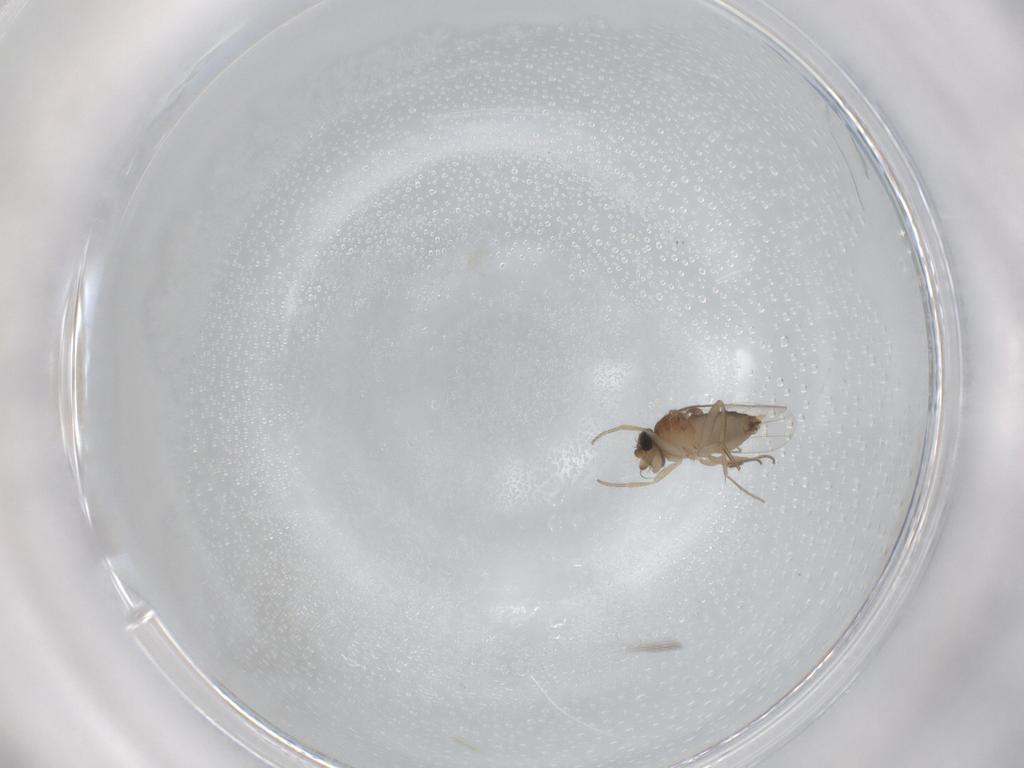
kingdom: Animalia
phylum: Arthropoda
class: Insecta
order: Diptera
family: Phoridae
